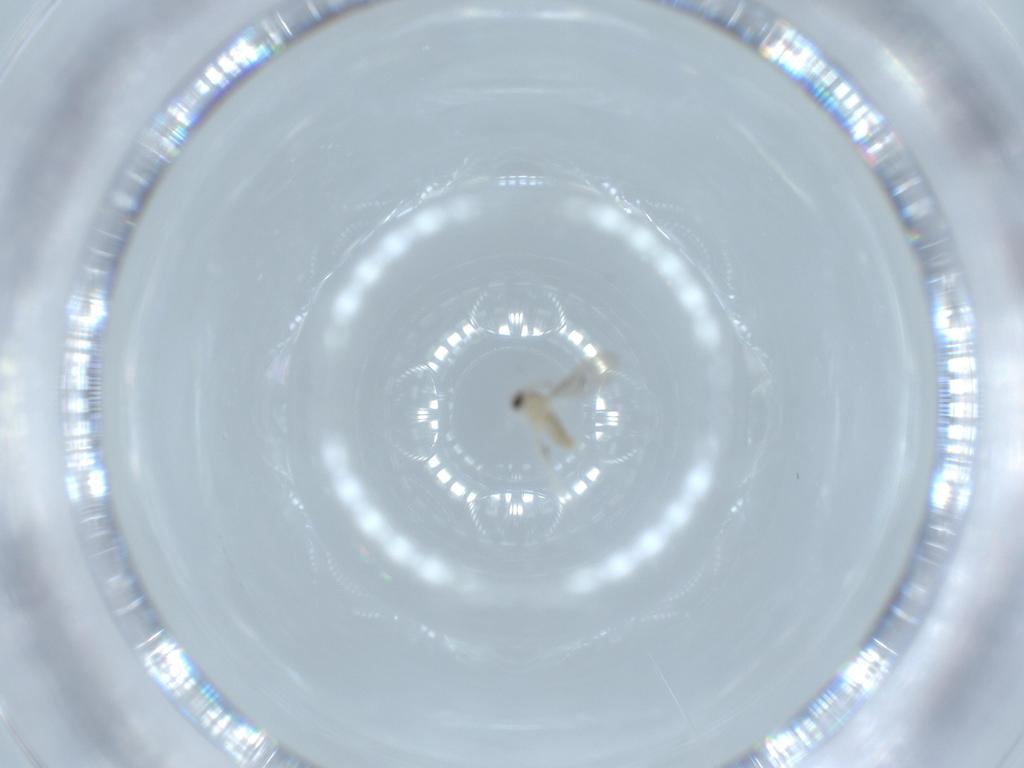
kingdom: Animalia
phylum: Arthropoda
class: Insecta
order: Diptera
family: Cecidomyiidae
